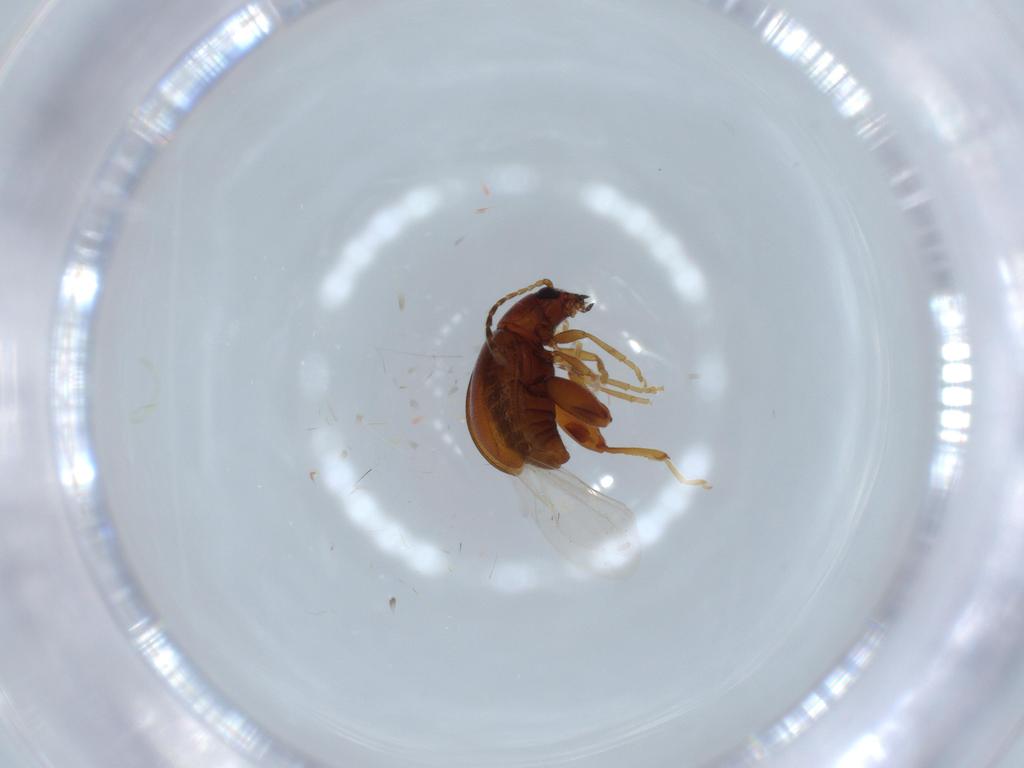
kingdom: Animalia
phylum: Arthropoda
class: Insecta
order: Coleoptera
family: Chrysomelidae
